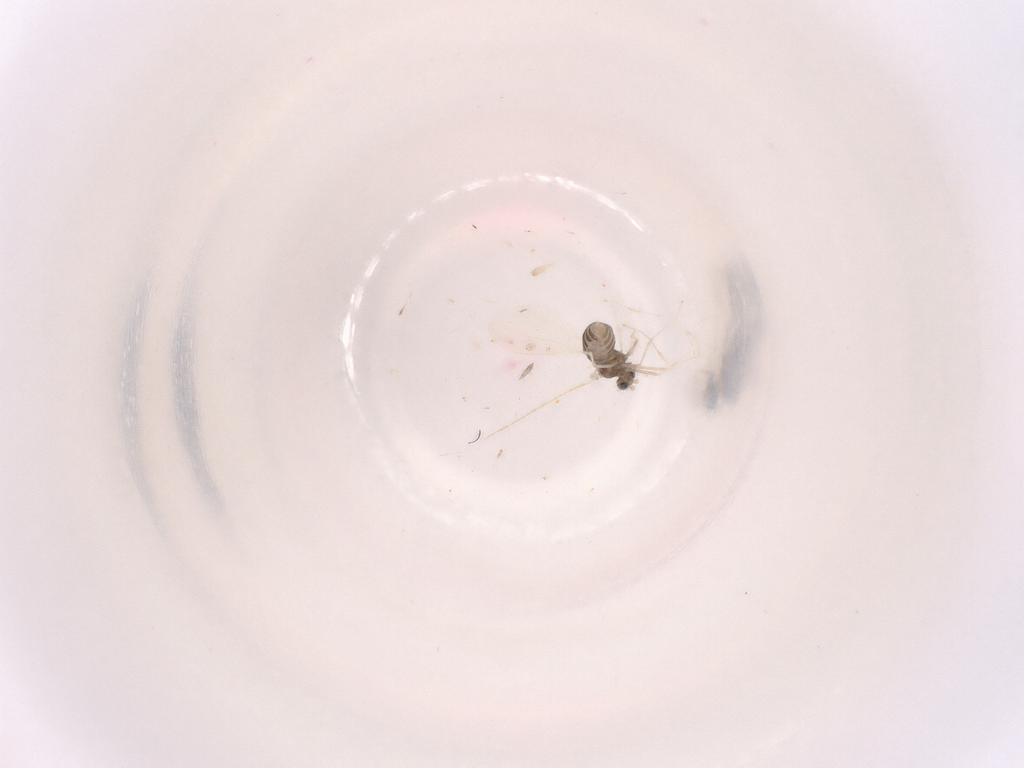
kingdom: Animalia
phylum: Arthropoda
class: Insecta
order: Diptera
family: Cecidomyiidae
